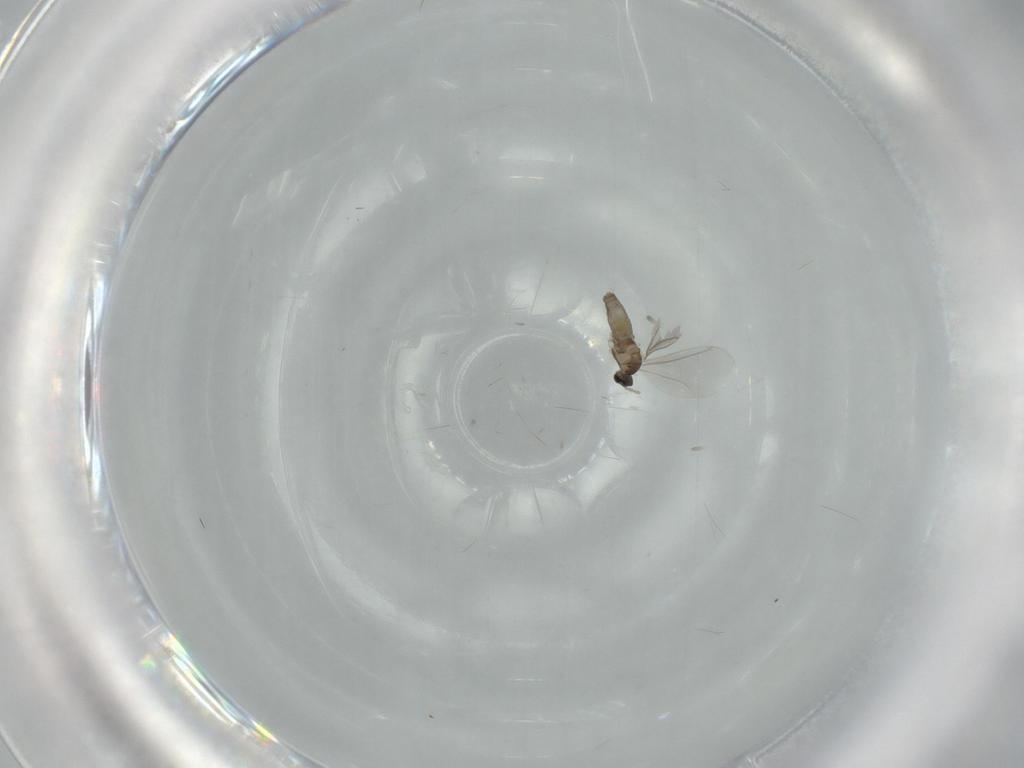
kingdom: Animalia
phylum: Arthropoda
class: Insecta
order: Diptera
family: Cecidomyiidae
